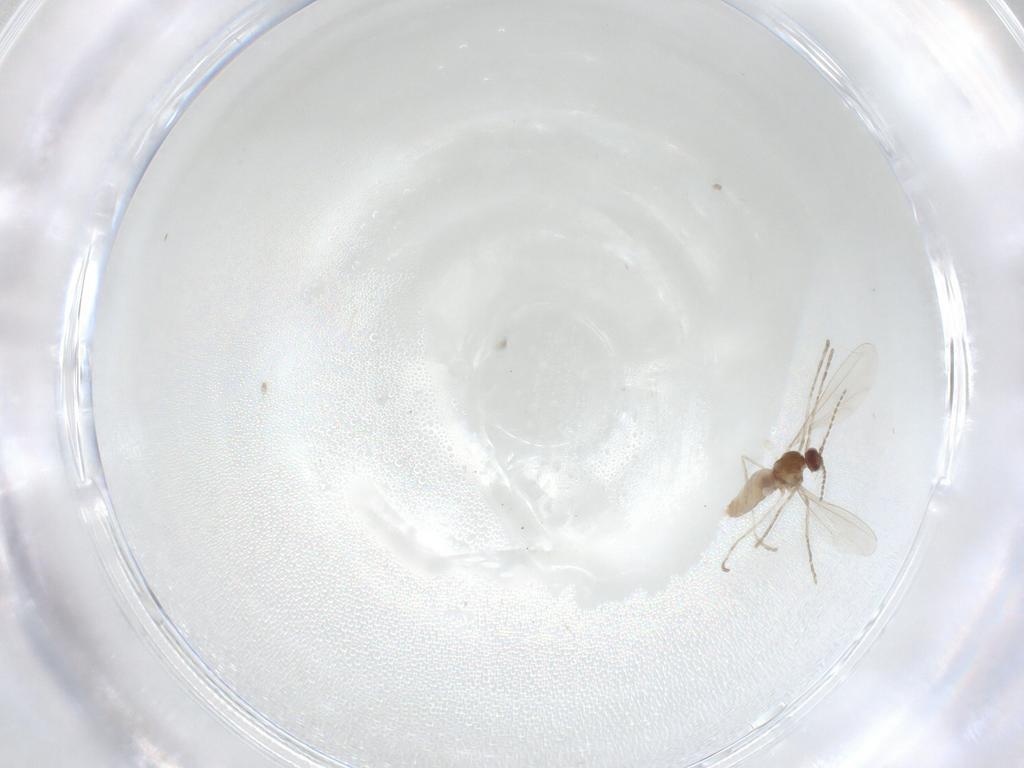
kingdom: Animalia
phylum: Arthropoda
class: Insecta
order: Diptera
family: Cecidomyiidae
